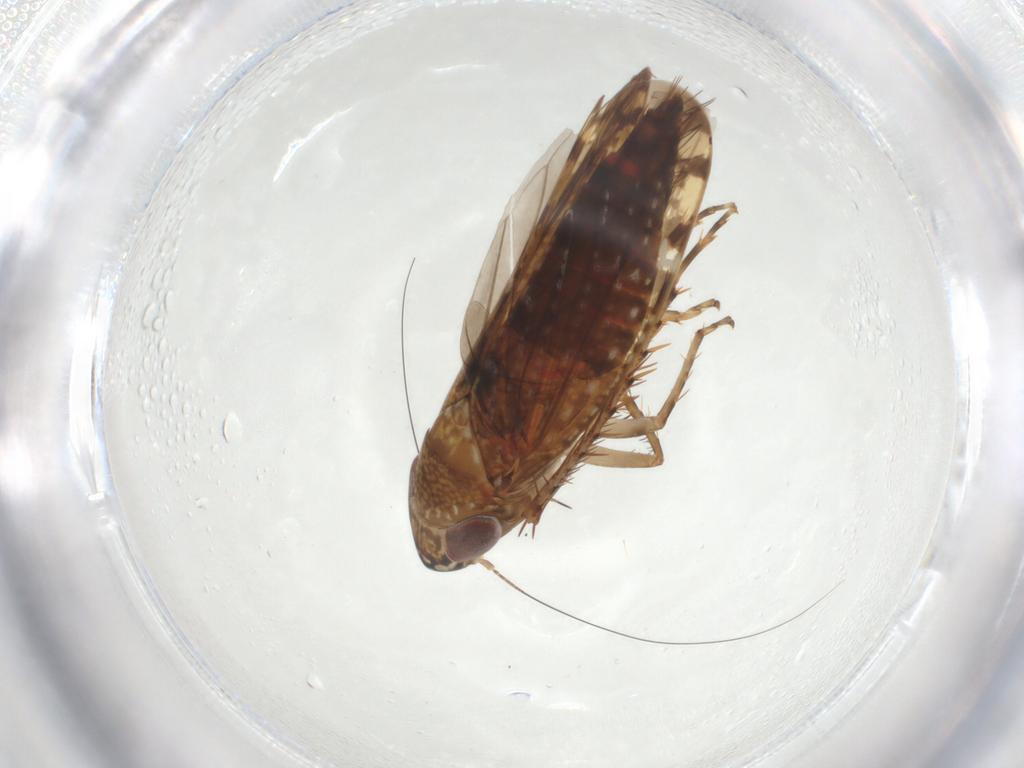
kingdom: Animalia
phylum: Arthropoda
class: Insecta
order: Hemiptera
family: Cicadellidae
